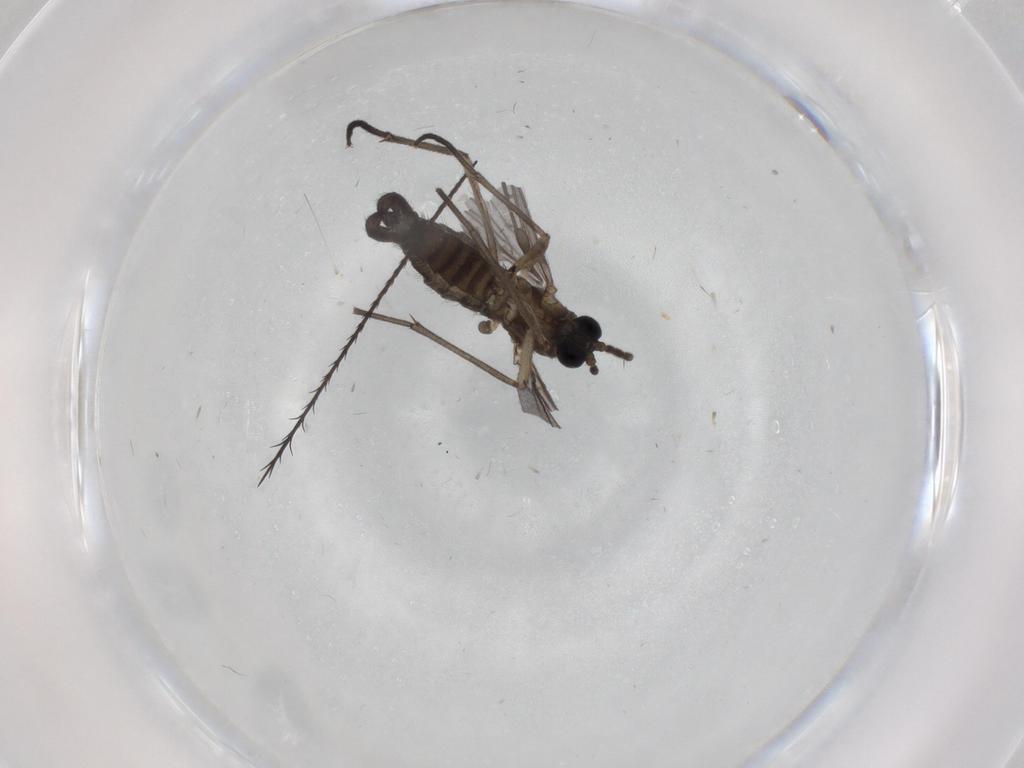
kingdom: Animalia
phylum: Arthropoda
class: Insecta
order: Diptera
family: Sciaridae
